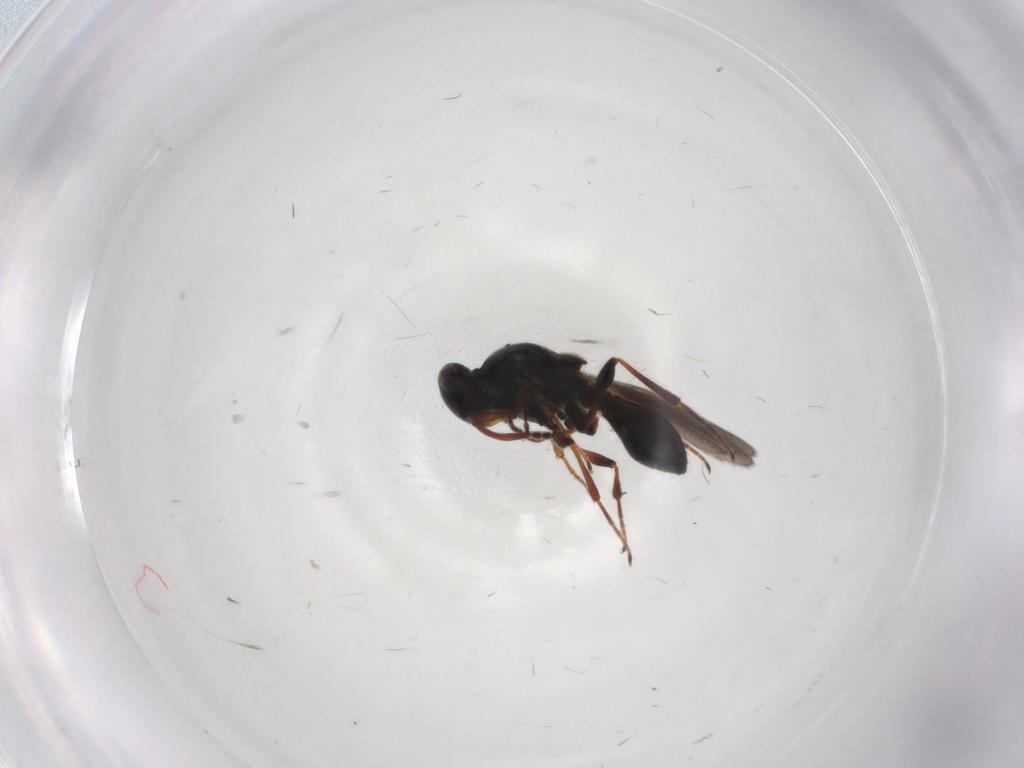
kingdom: Animalia
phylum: Arthropoda
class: Insecta
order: Hymenoptera
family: Platygastridae
